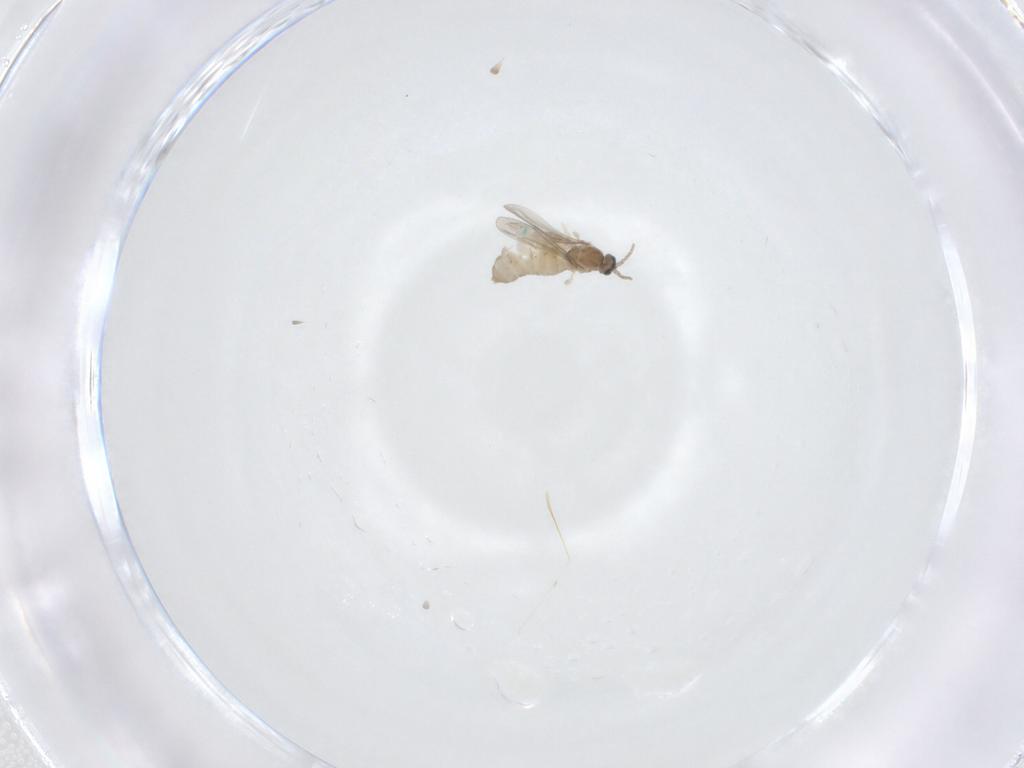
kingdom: Animalia
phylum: Arthropoda
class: Insecta
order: Diptera
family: Cecidomyiidae
